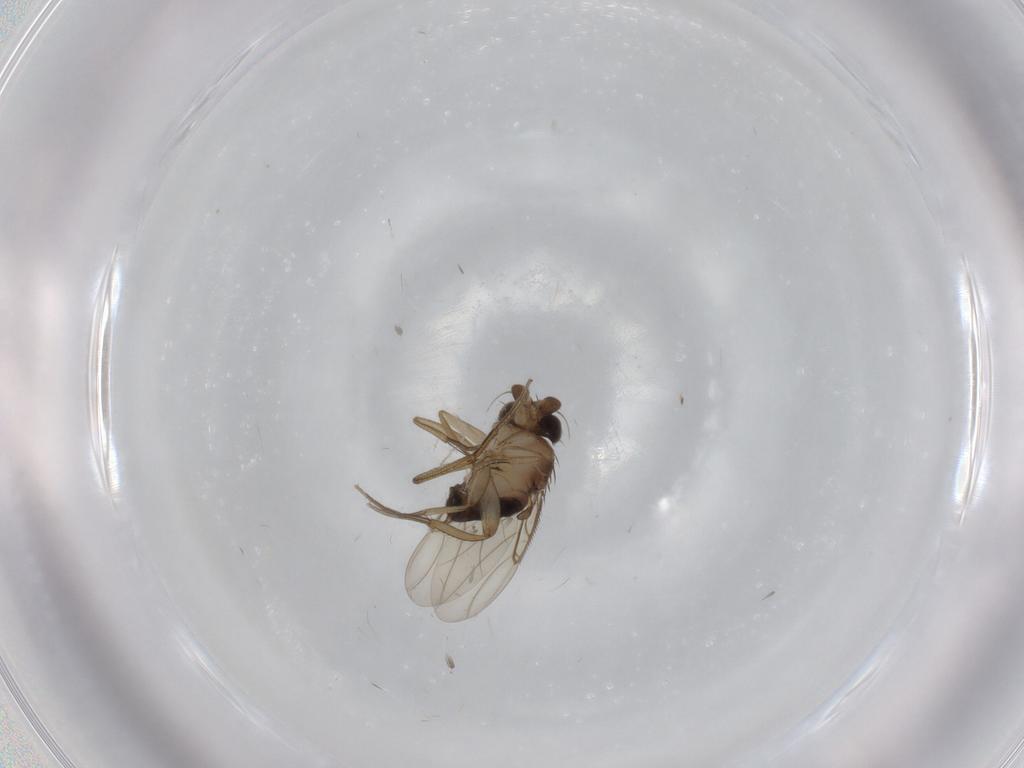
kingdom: Animalia
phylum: Arthropoda
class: Insecta
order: Diptera
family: Phoridae
